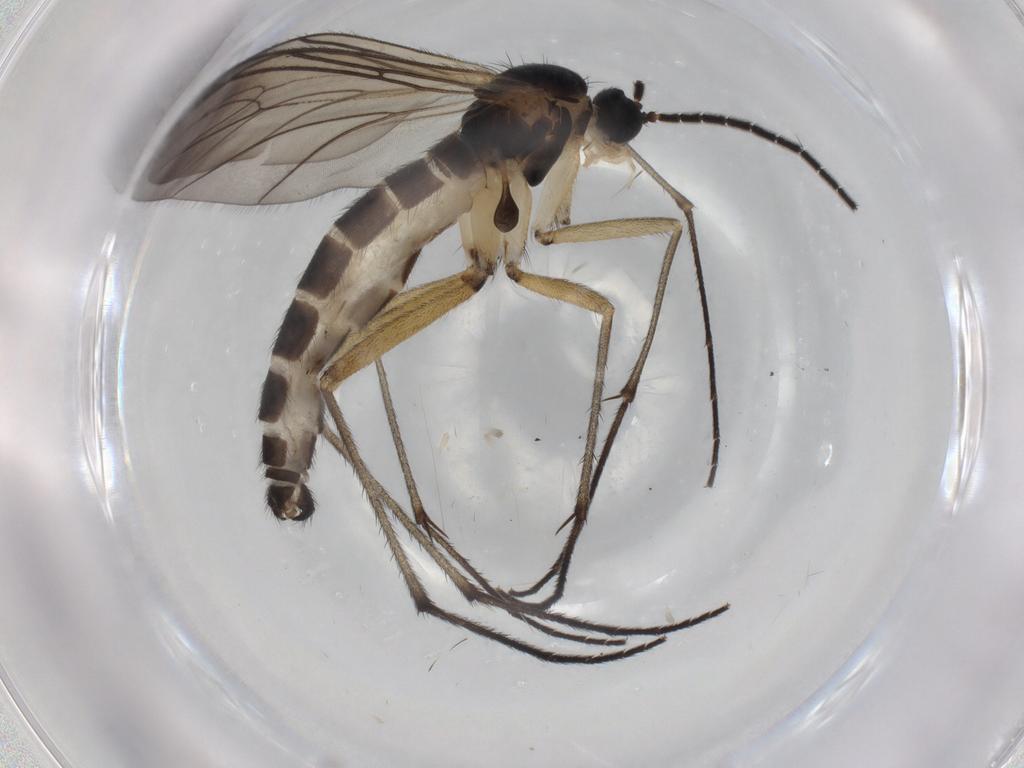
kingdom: Animalia
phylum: Arthropoda
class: Insecta
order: Diptera
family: Sciaridae
